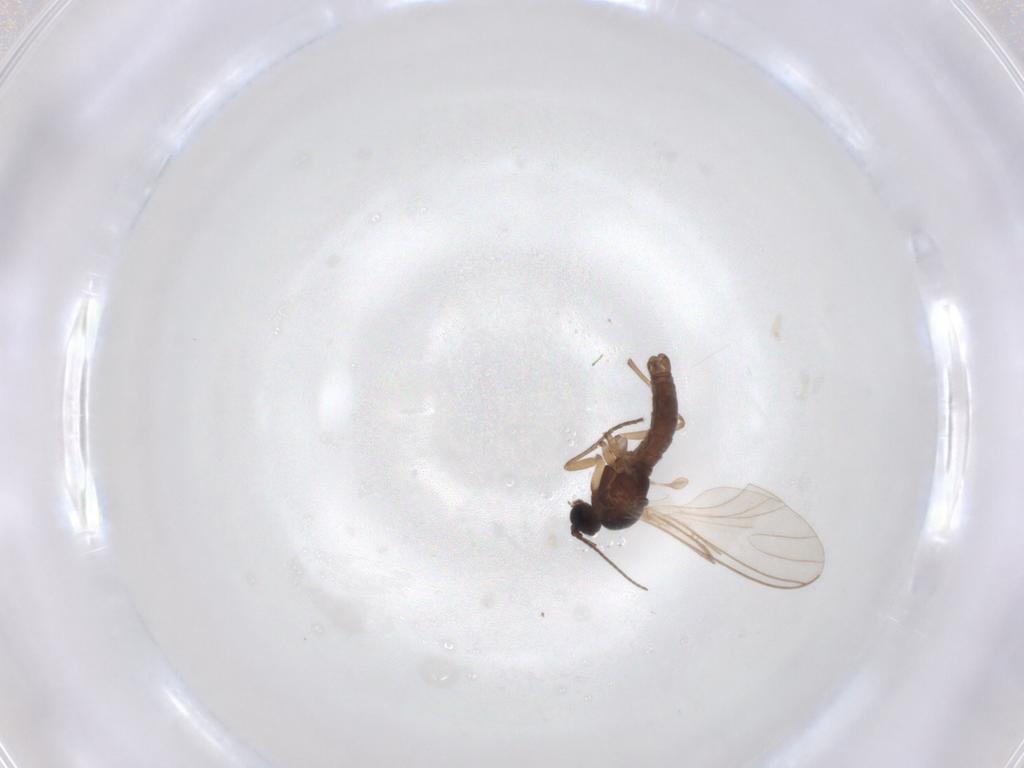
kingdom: Animalia
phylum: Arthropoda
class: Insecta
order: Diptera
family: Sciaridae
